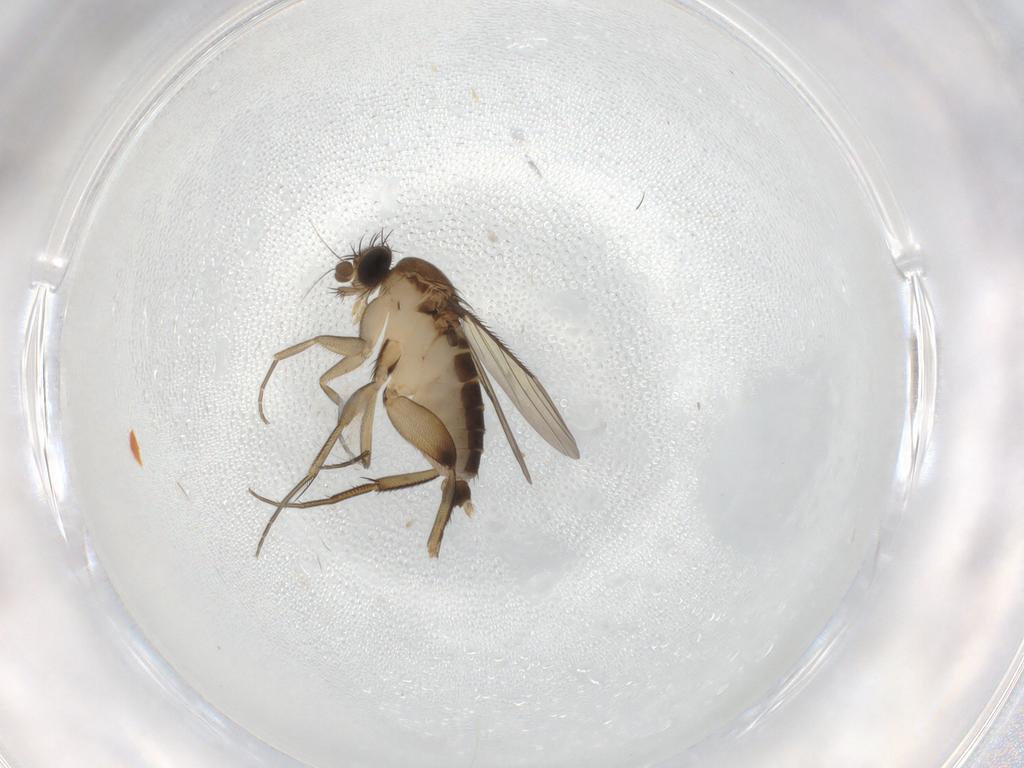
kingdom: Animalia
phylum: Arthropoda
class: Insecta
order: Diptera
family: Phoridae
